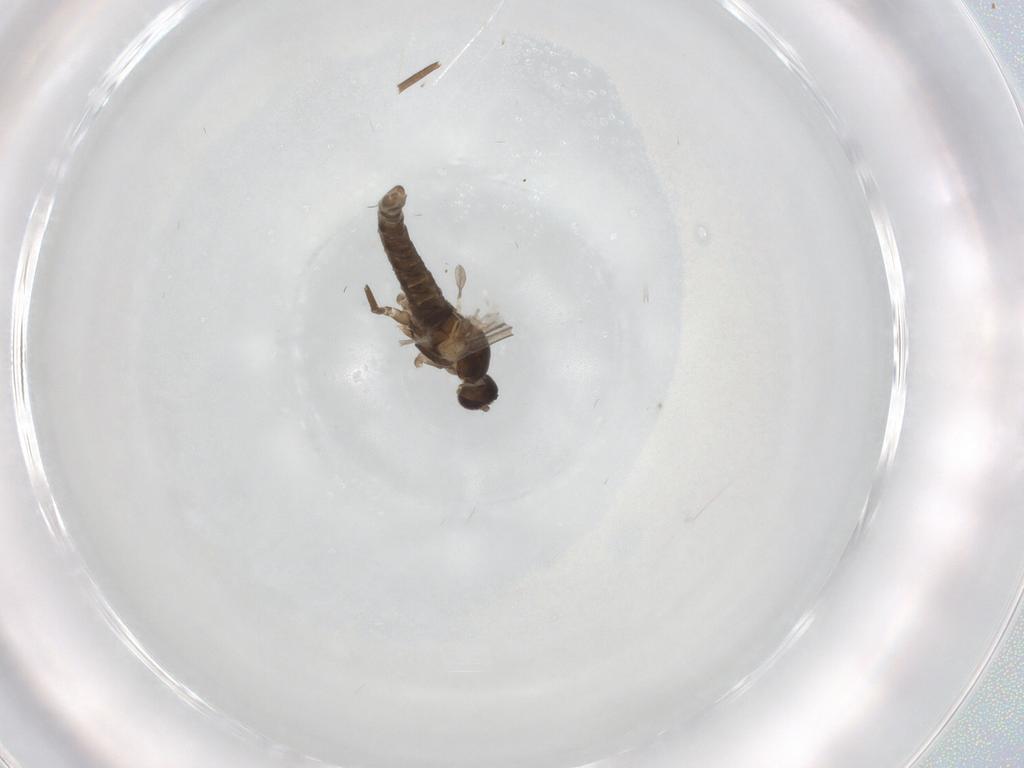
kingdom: Animalia
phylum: Arthropoda
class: Insecta
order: Diptera
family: Cecidomyiidae
